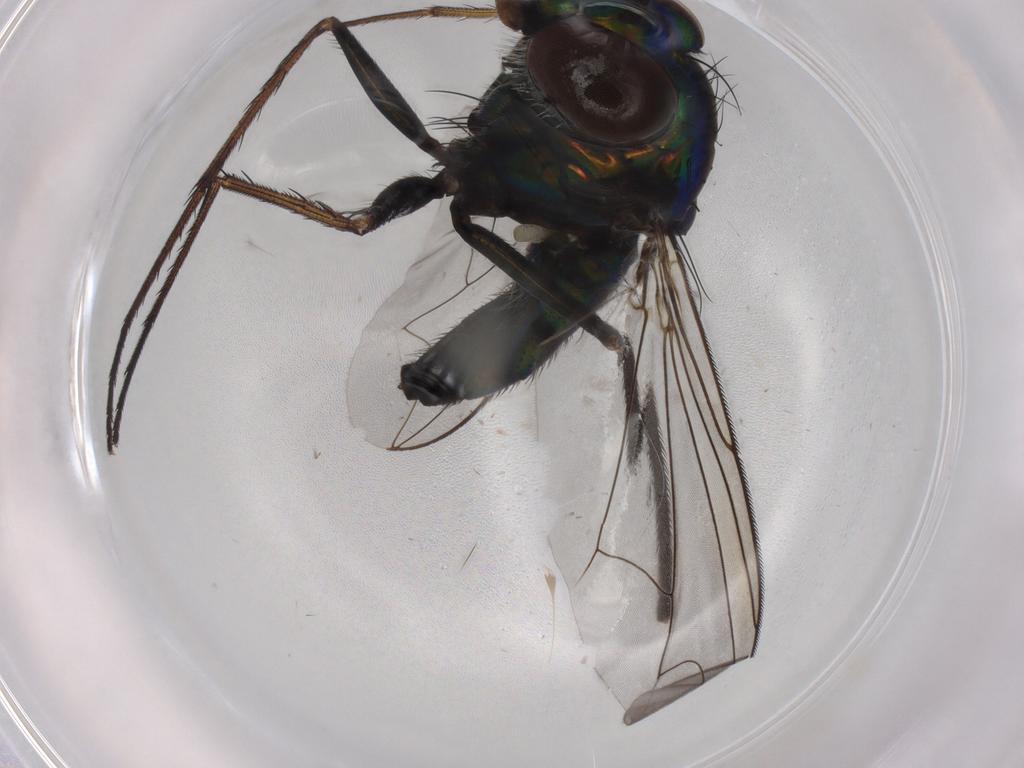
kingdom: Animalia
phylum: Arthropoda
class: Insecta
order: Diptera
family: Dolichopodidae
